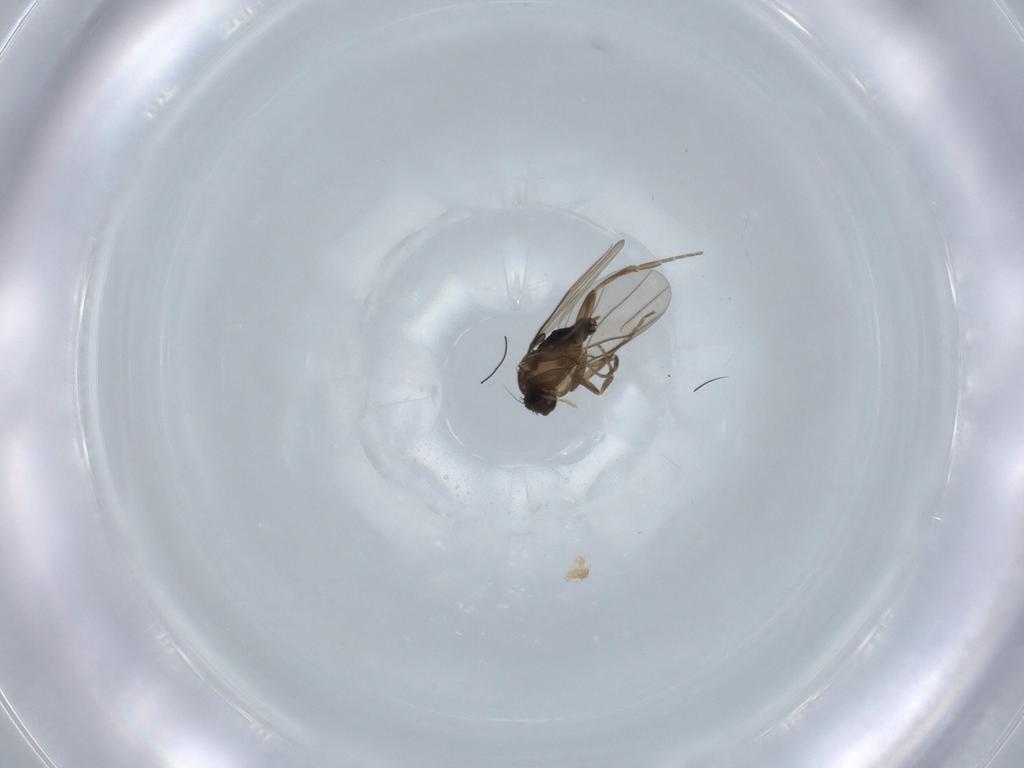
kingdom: Animalia
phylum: Arthropoda
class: Insecta
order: Diptera
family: Phoridae
